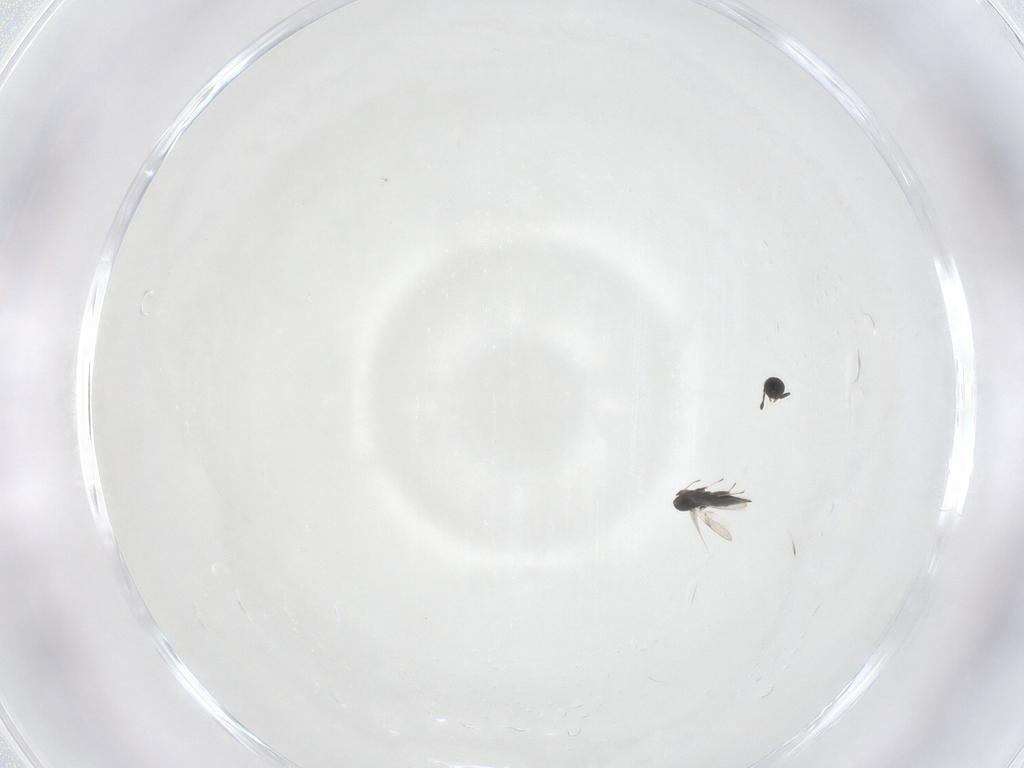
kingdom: Animalia
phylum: Arthropoda
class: Insecta
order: Hymenoptera
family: Scelionidae
